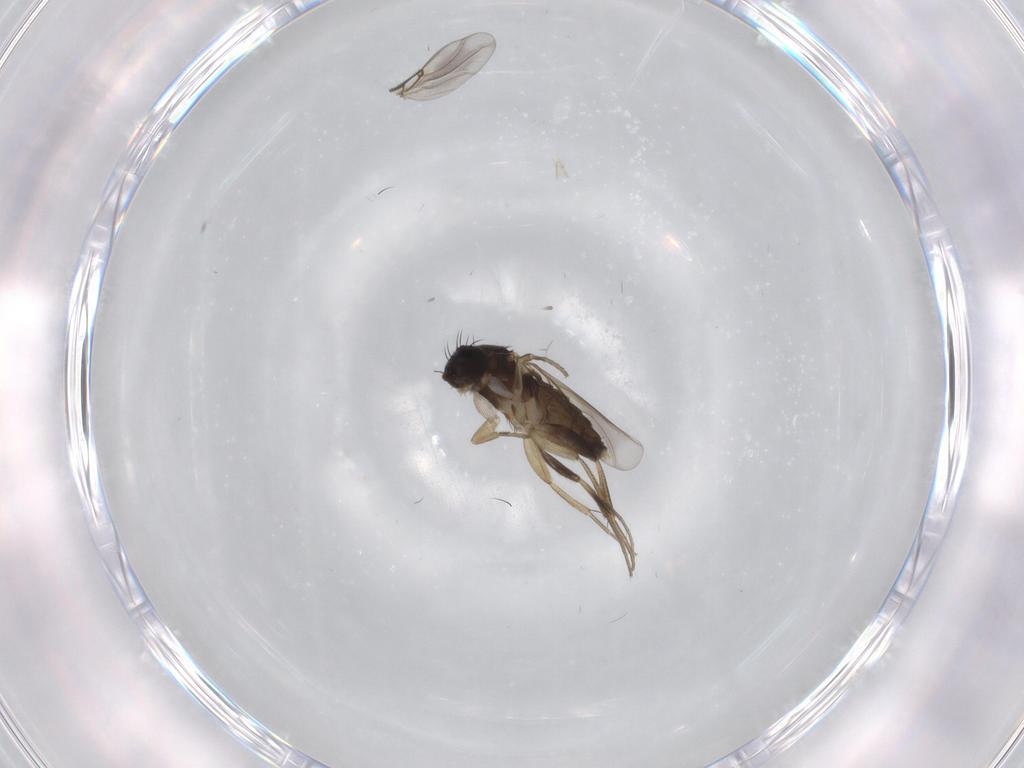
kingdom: Animalia
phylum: Arthropoda
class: Insecta
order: Diptera
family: Phoridae
